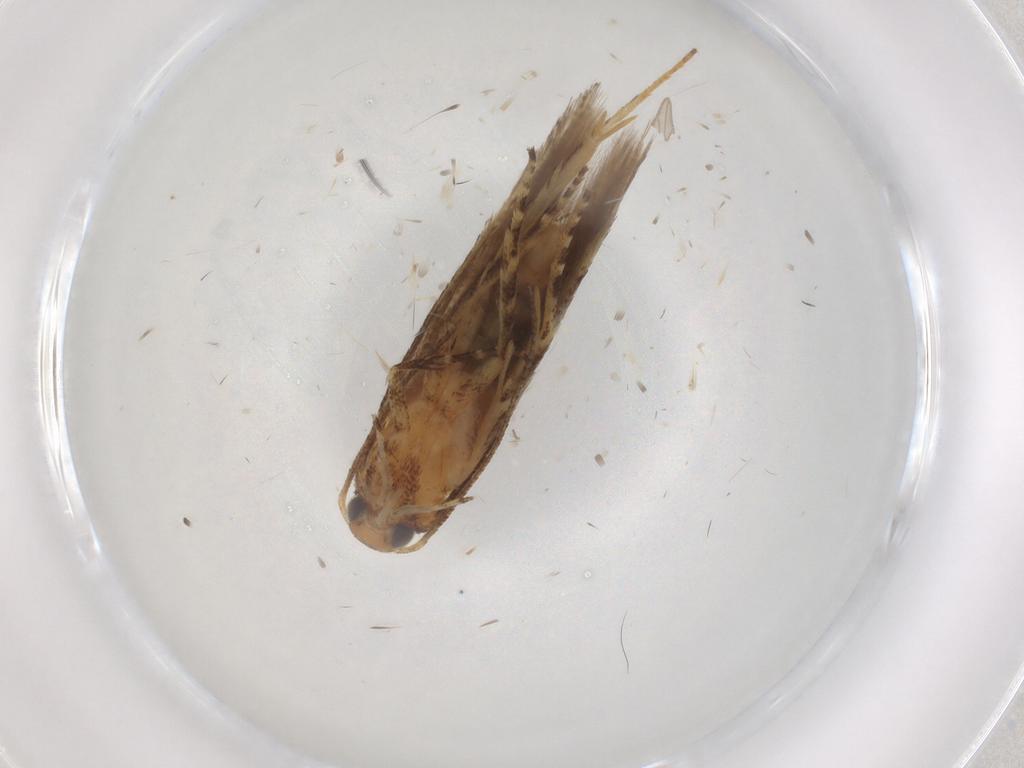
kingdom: Animalia
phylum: Arthropoda
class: Insecta
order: Lepidoptera
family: Gelechiidae
